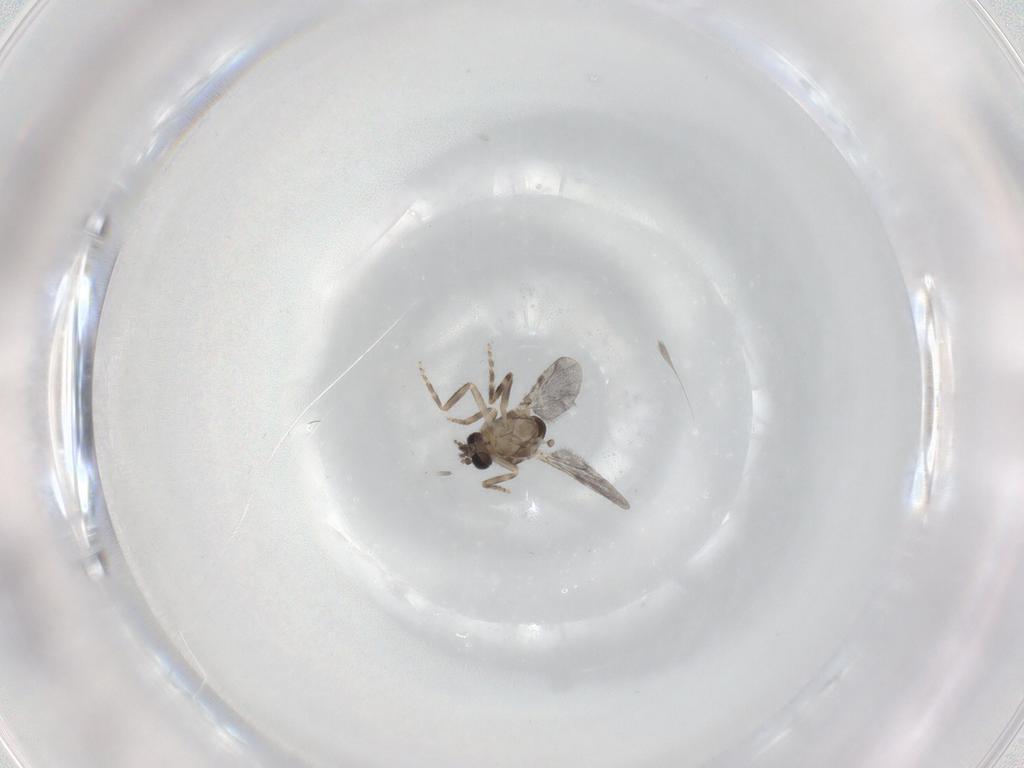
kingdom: Animalia
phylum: Arthropoda
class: Insecta
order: Diptera
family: Ceratopogonidae
